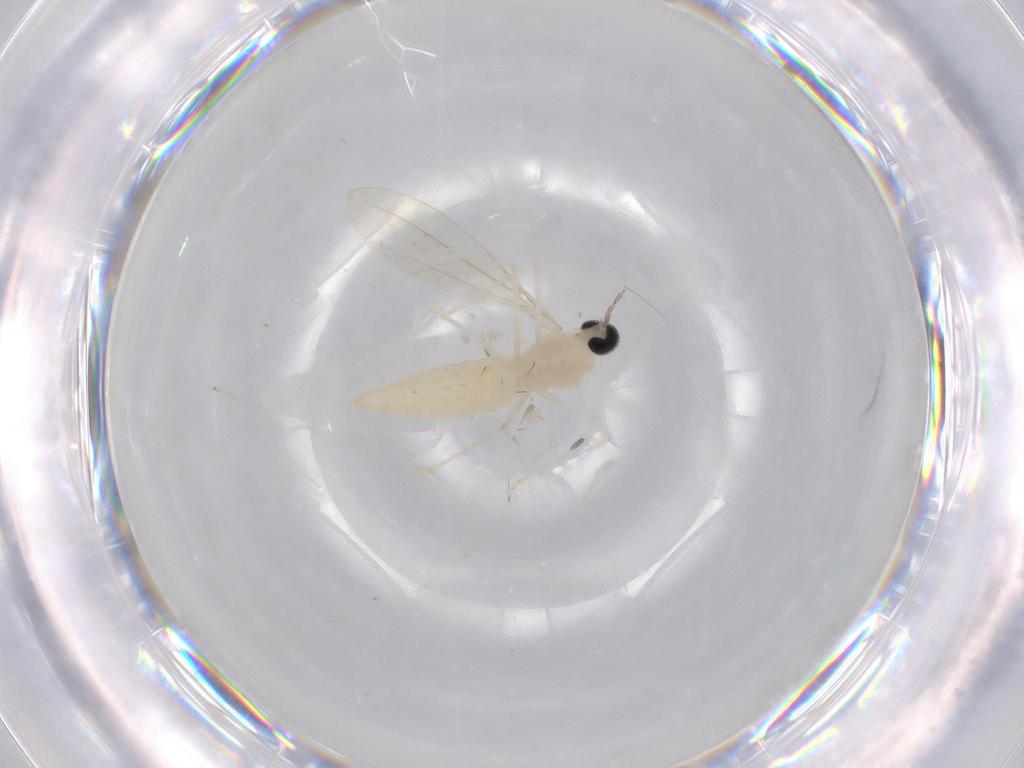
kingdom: Animalia
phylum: Arthropoda
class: Insecta
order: Diptera
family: Cecidomyiidae
